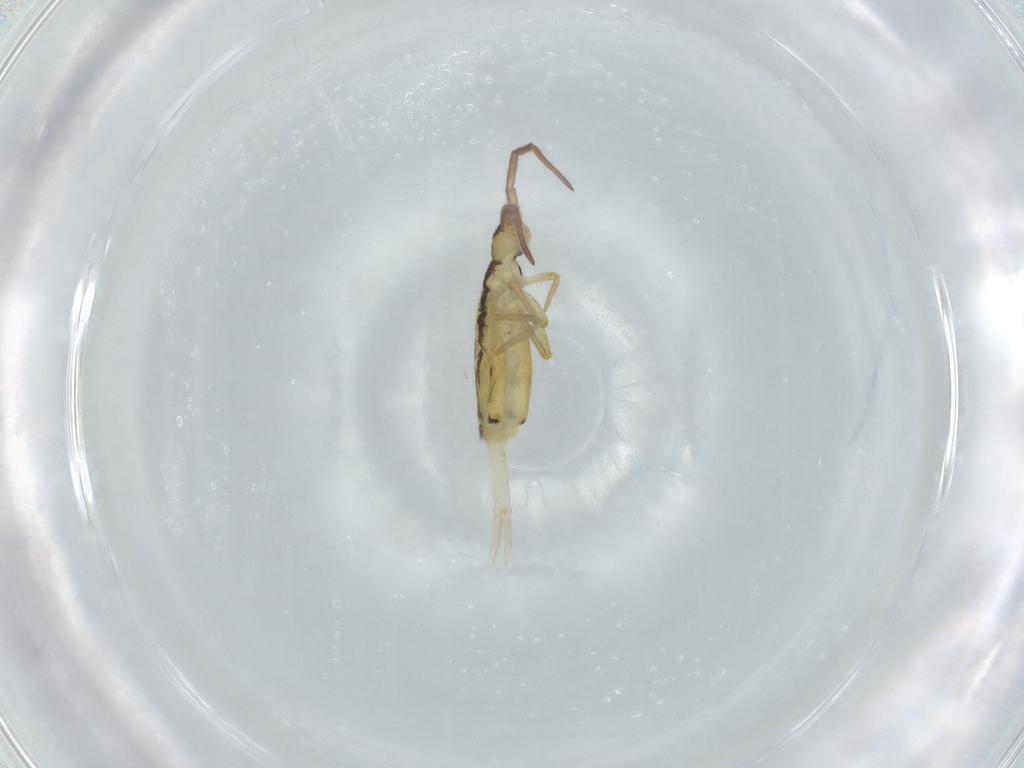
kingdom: Animalia
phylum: Arthropoda
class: Collembola
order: Entomobryomorpha
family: Entomobryidae
